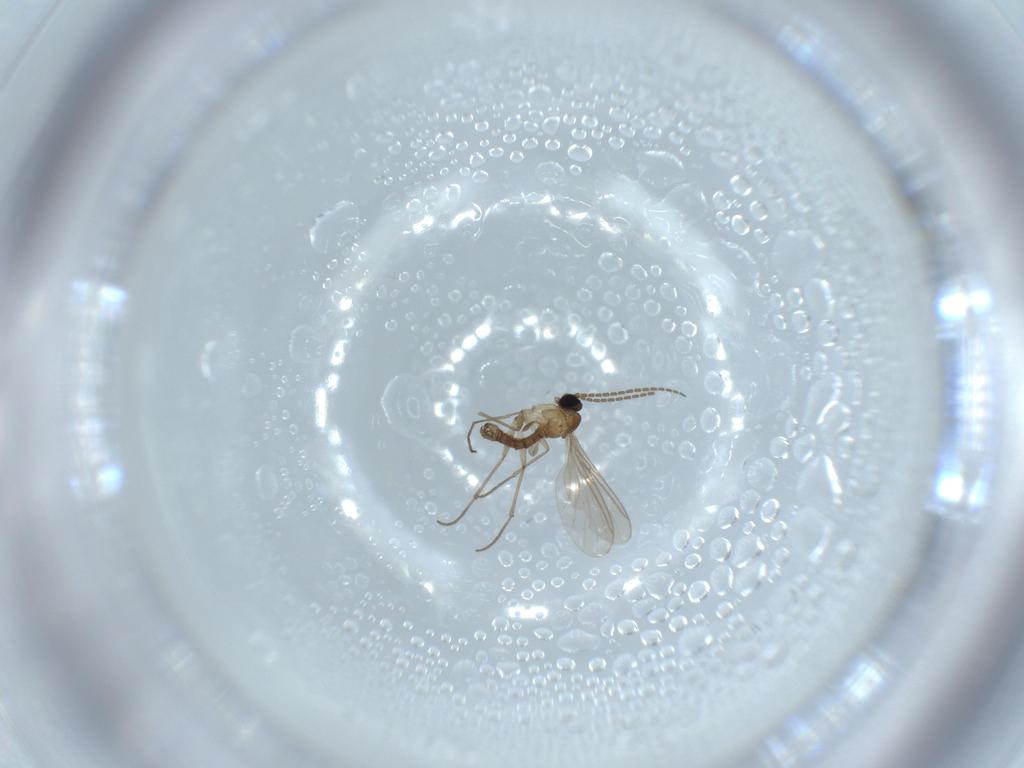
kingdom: Animalia
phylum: Arthropoda
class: Insecta
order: Diptera
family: Sciaridae
